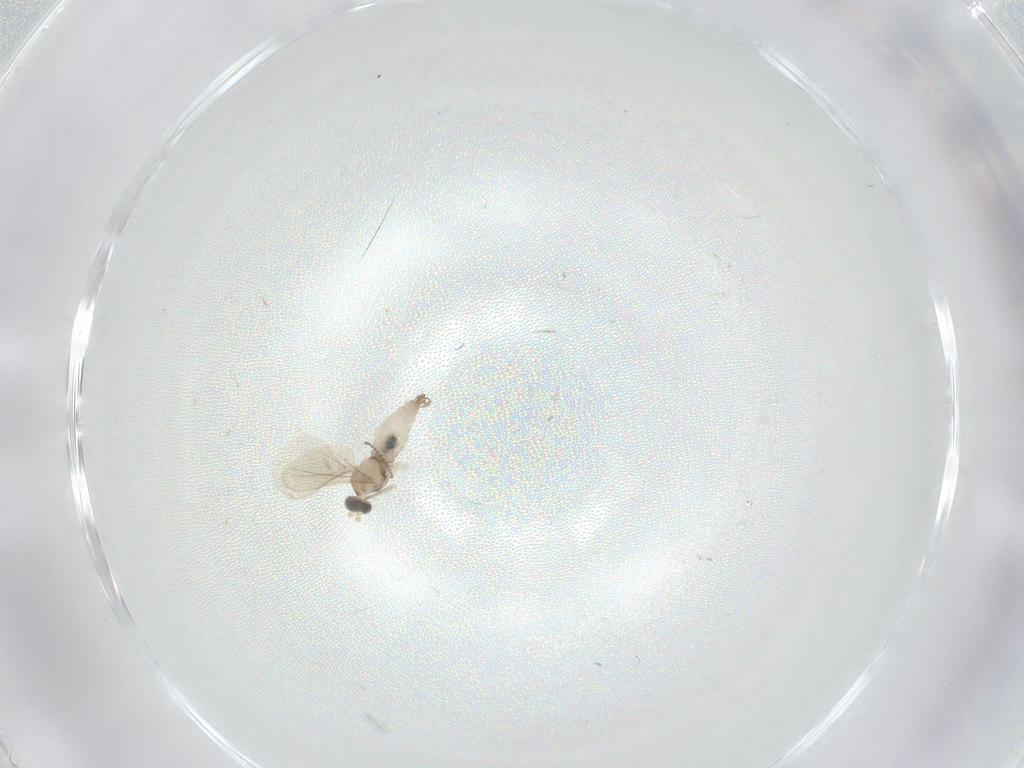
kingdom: Animalia
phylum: Arthropoda
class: Insecta
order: Diptera
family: Cecidomyiidae
